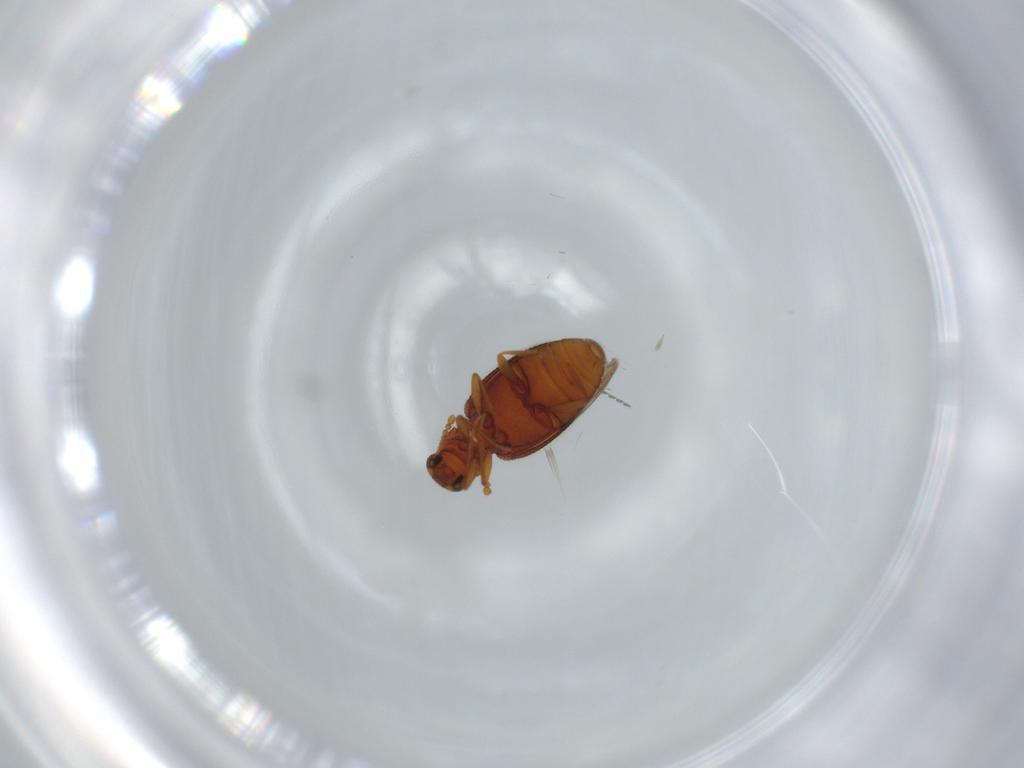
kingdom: Animalia
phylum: Arthropoda
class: Insecta
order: Coleoptera
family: Latridiidae
